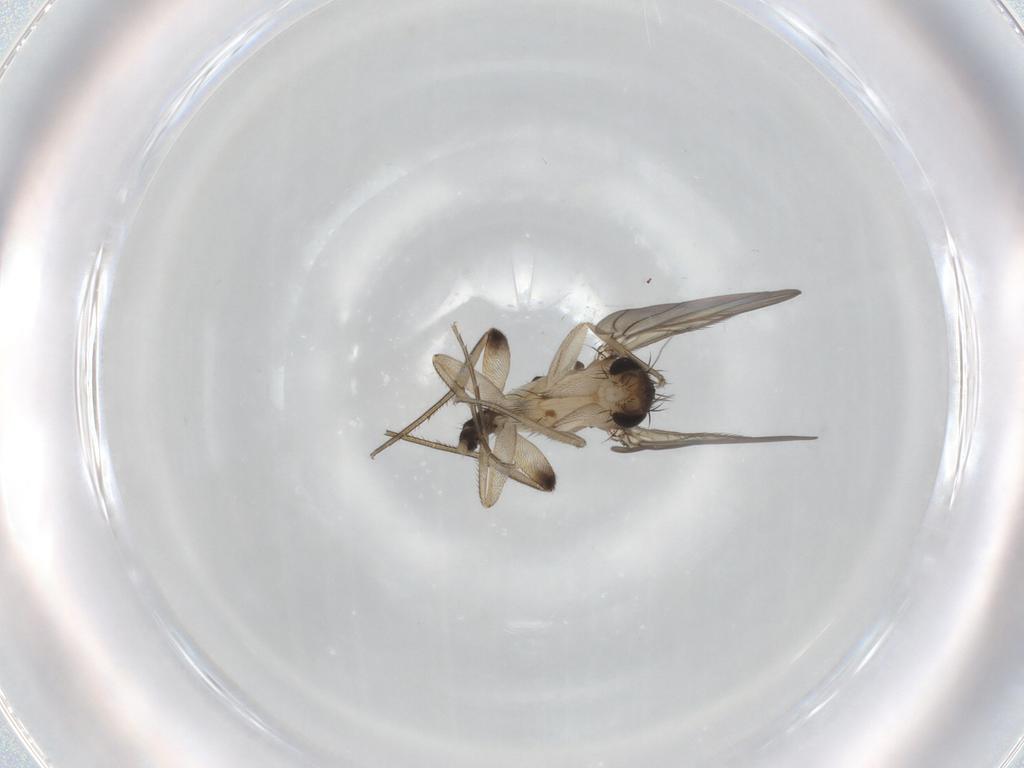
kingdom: Animalia
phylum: Arthropoda
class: Insecta
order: Diptera
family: Phoridae
